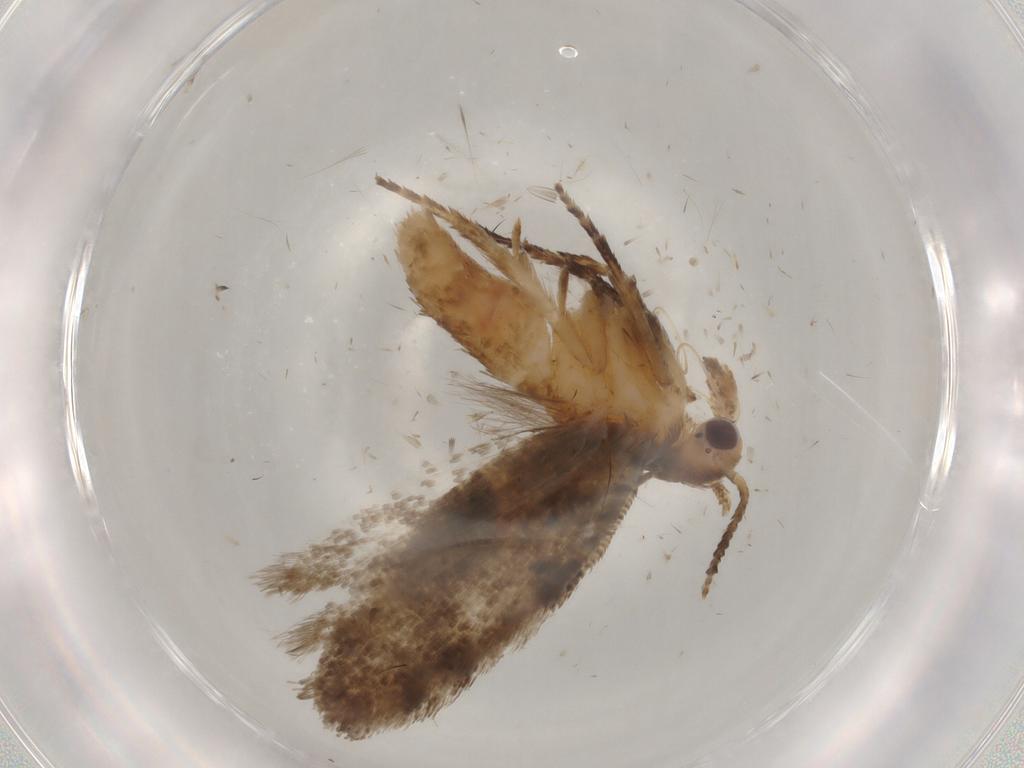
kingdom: Animalia
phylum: Arthropoda
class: Insecta
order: Lepidoptera
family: Ypsolophidae
